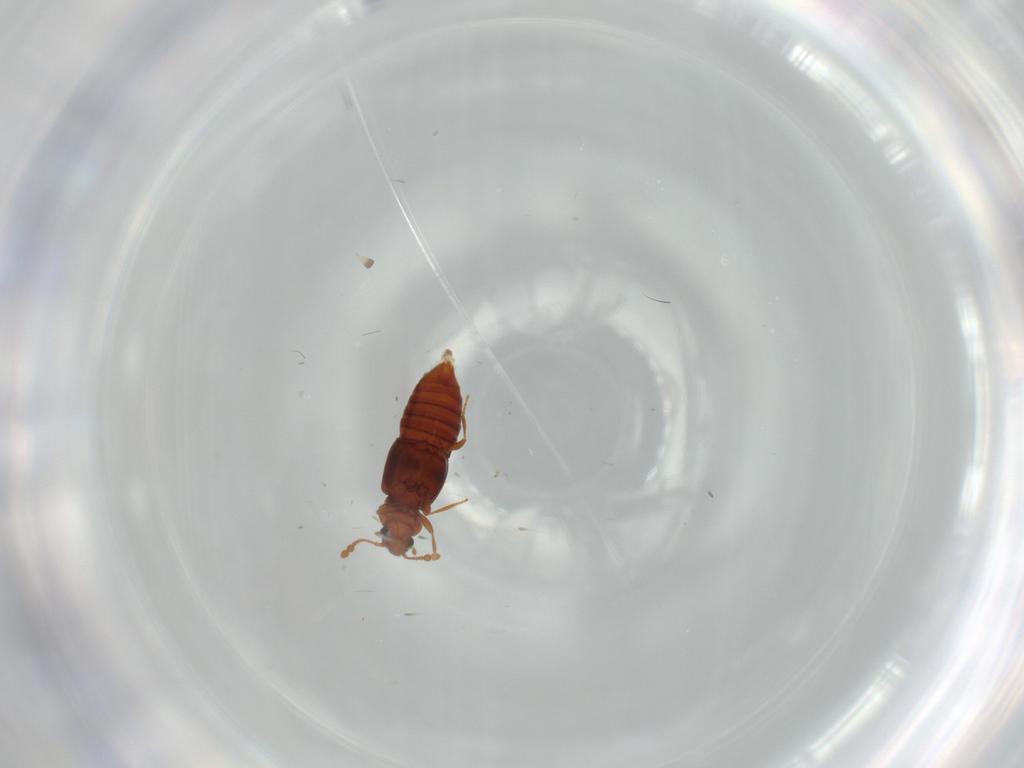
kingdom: Animalia
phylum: Arthropoda
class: Insecta
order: Coleoptera
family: Staphylinidae
